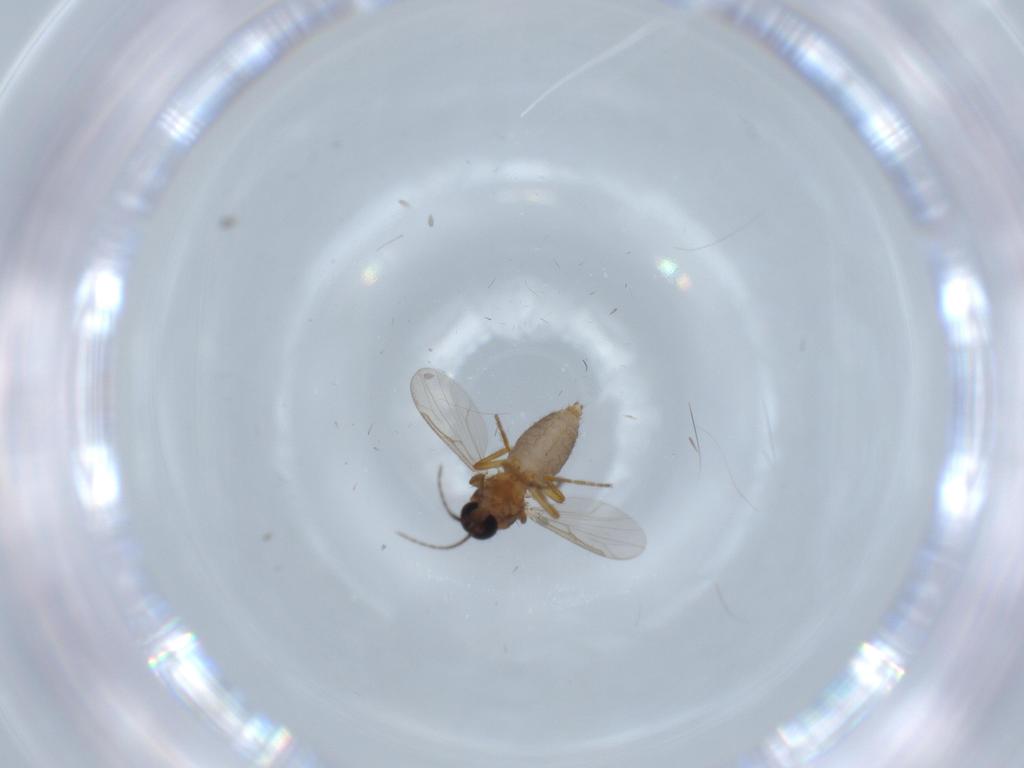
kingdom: Animalia
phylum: Arthropoda
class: Insecta
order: Diptera
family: Ceratopogonidae
